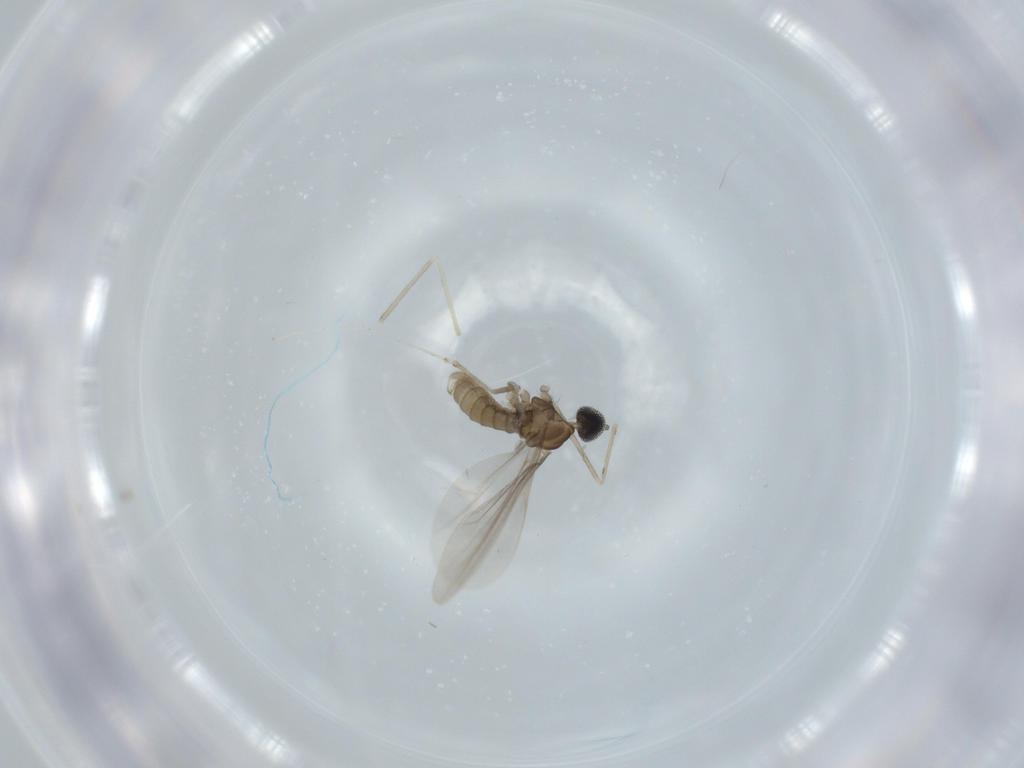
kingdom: Animalia
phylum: Arthropoda
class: Insecta
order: Diptera
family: Cecidomyiidae
